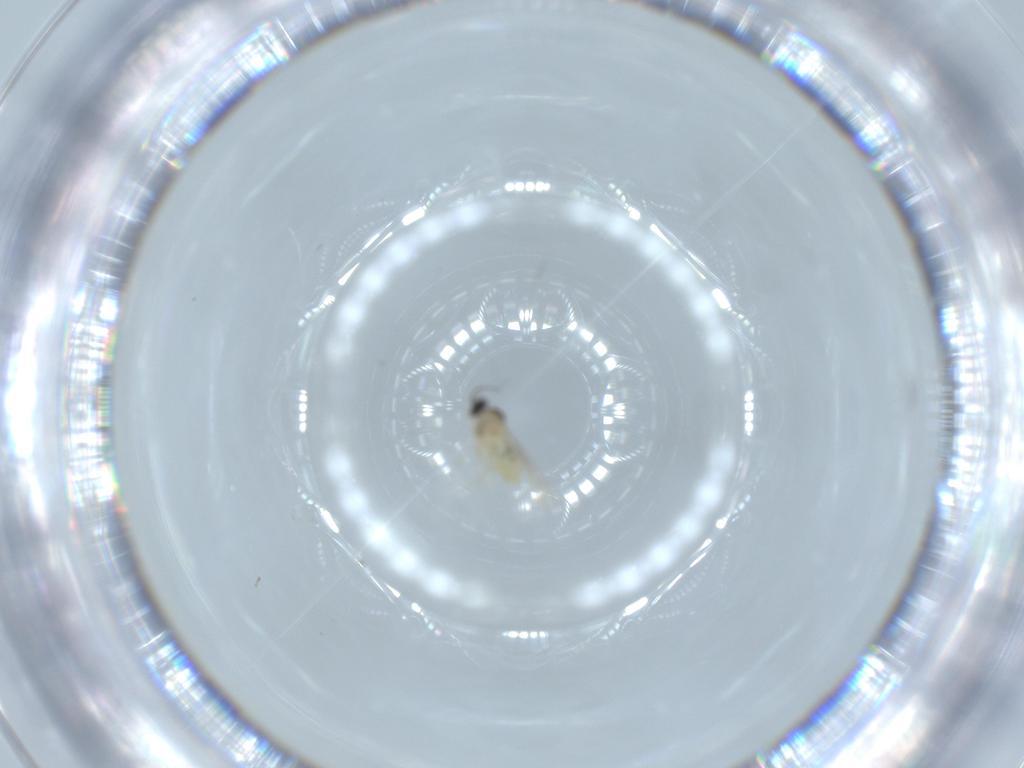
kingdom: Animalia
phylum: Arthropoda
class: Insecta
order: Diptera
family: Cecidomyiidae
